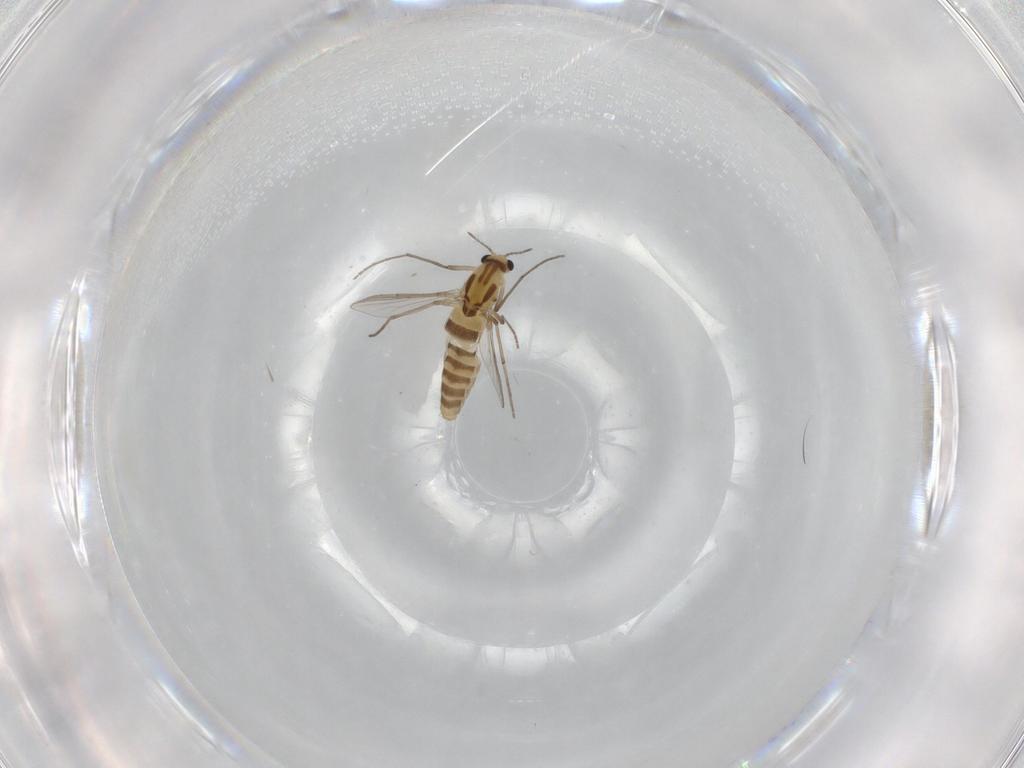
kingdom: Animalia
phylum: Arthropoda
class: Insecta
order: Diptera
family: Chironomidae
